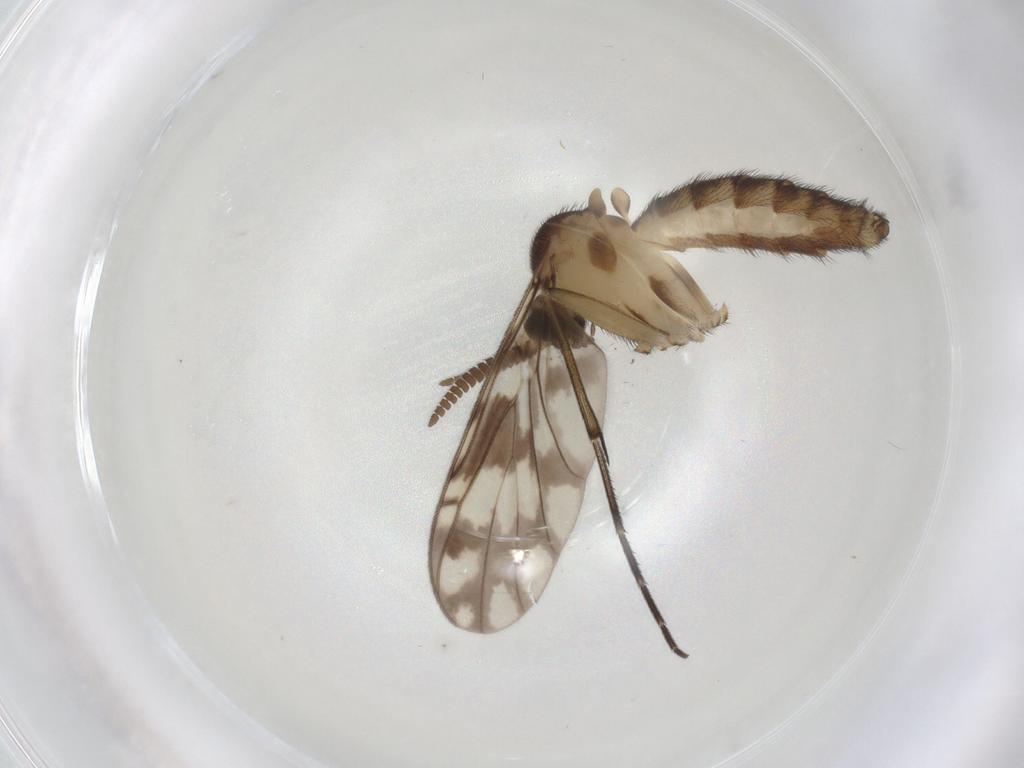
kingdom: Animalia
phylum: Arthropoda
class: Insecta
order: Diptera
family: Keroplatidae
